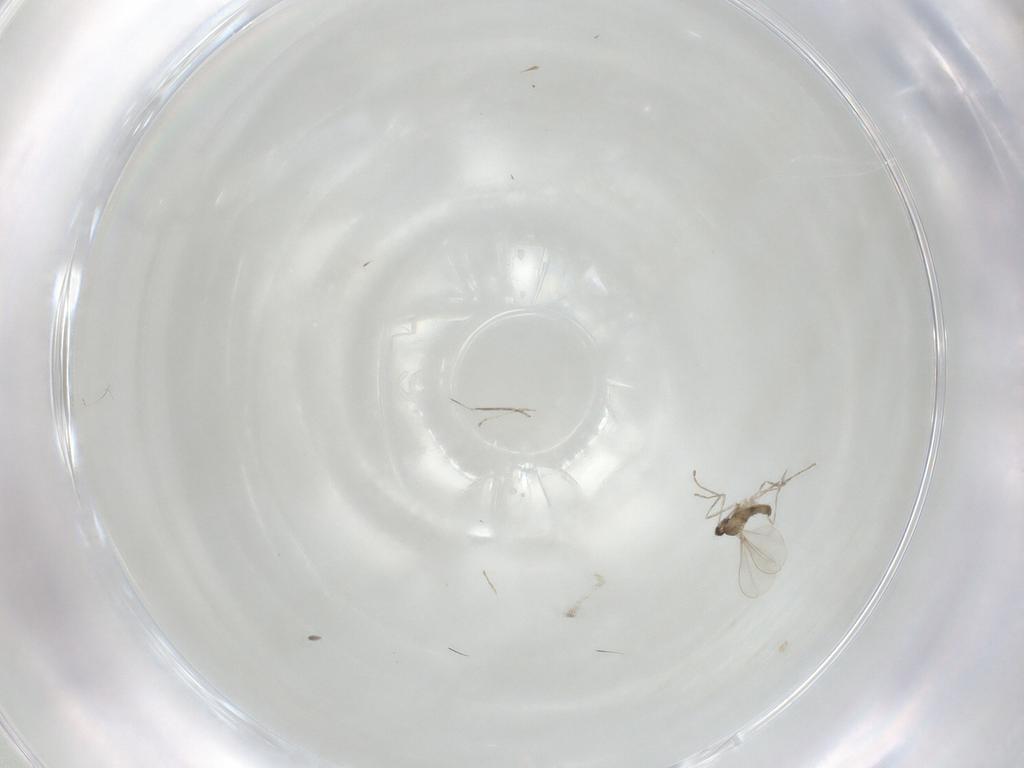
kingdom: Animalia
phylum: Arthropoda
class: Insecta
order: Diptera
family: Cecidomyiidae
